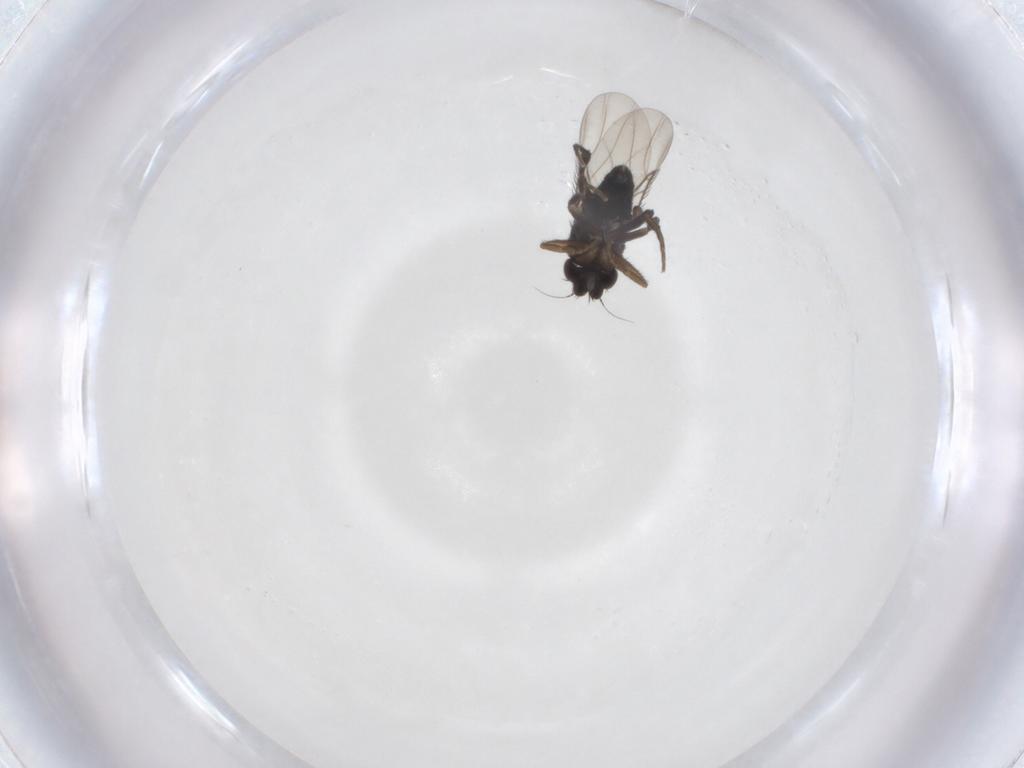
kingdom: Animalia
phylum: Arthropoda
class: Insecta
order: Diptera
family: Phoridae
